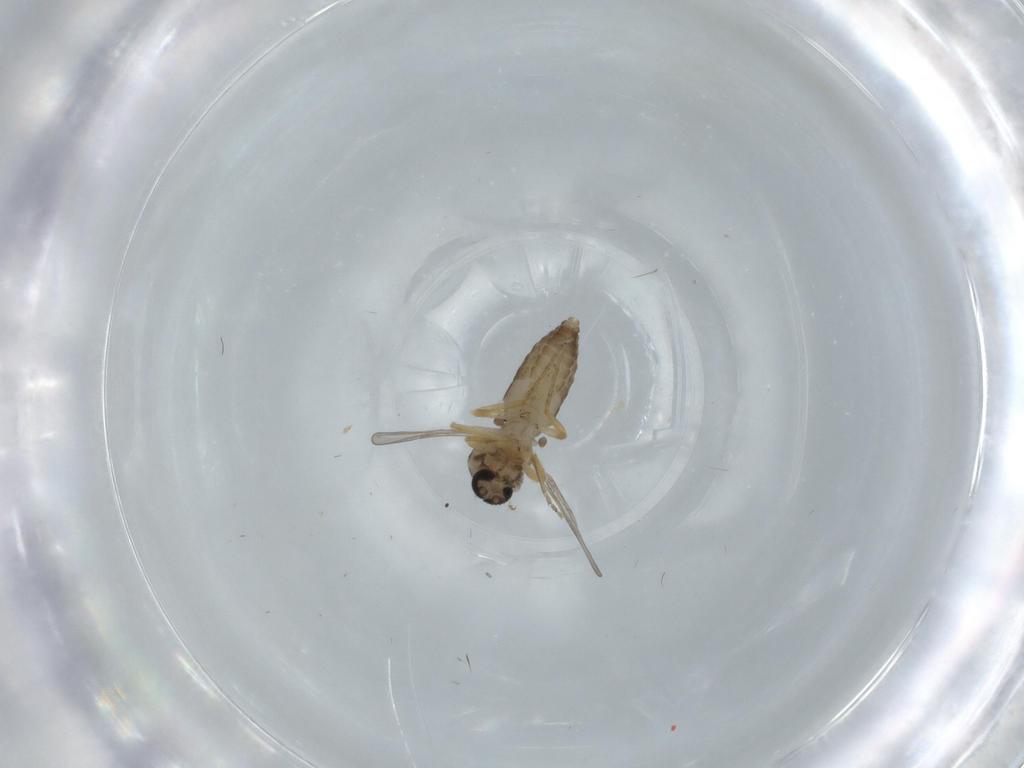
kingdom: Animalia
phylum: Arthropoda
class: Insecta
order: Diptera
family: Ceratopogonidae
